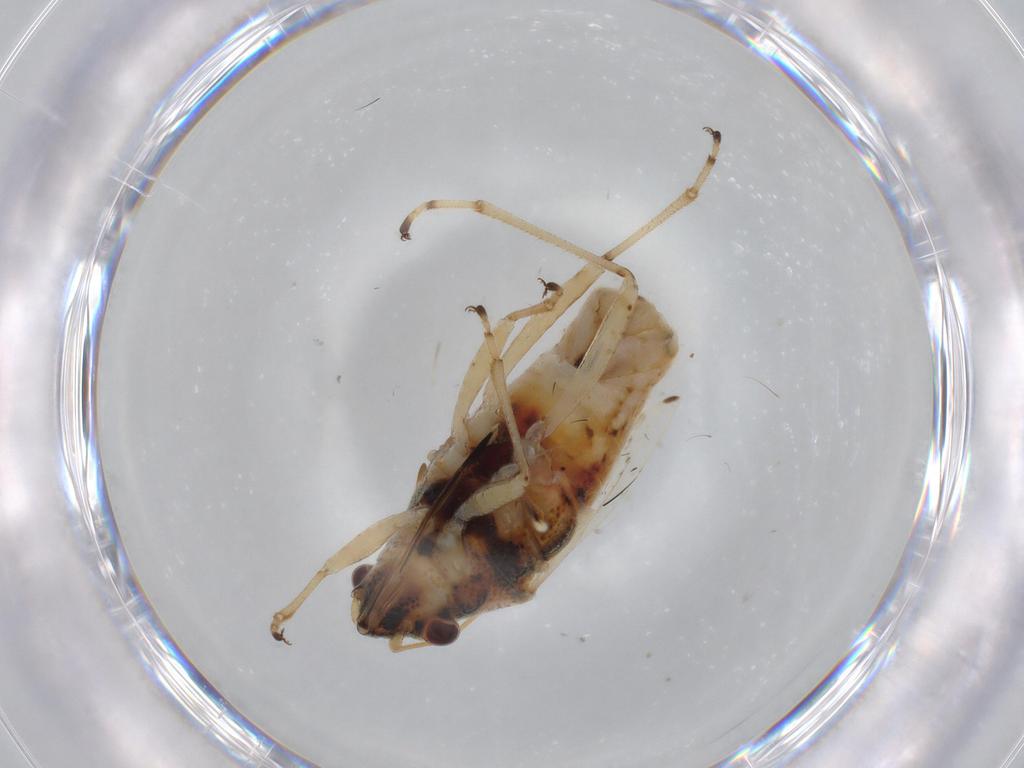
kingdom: Animalia
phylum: Arthropoda
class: Insecta
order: Hemiptera
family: Lygaeidae
